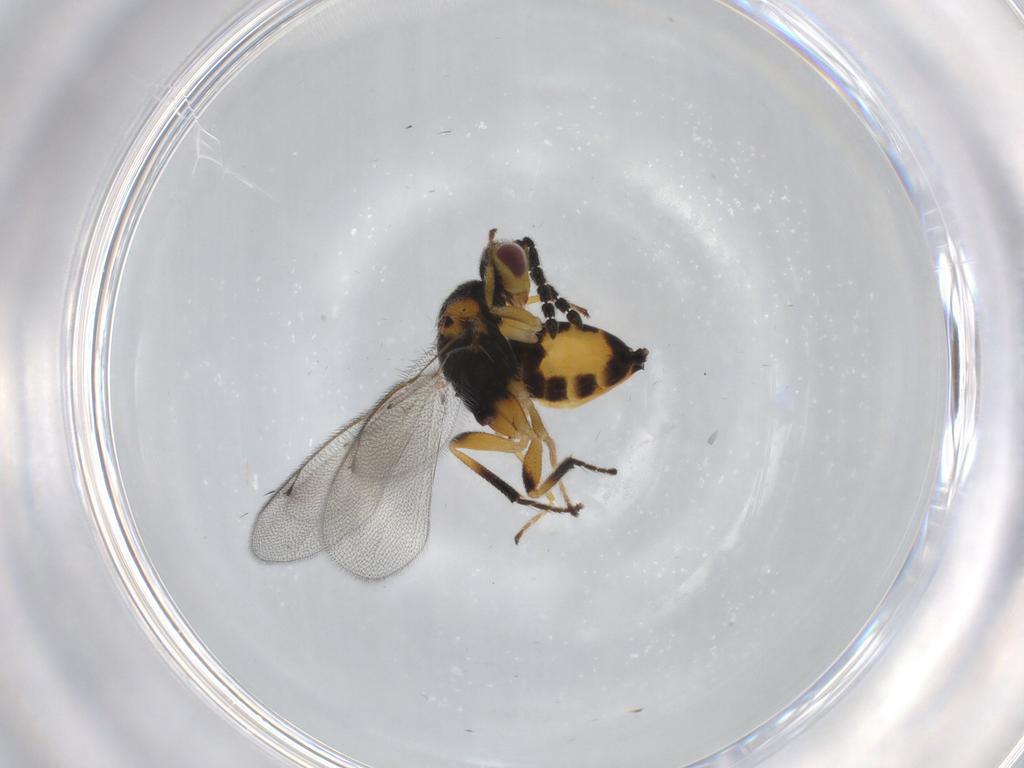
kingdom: Animalia
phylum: Arthropoda
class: Insecta
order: Hymenoptera
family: Eulophidae
